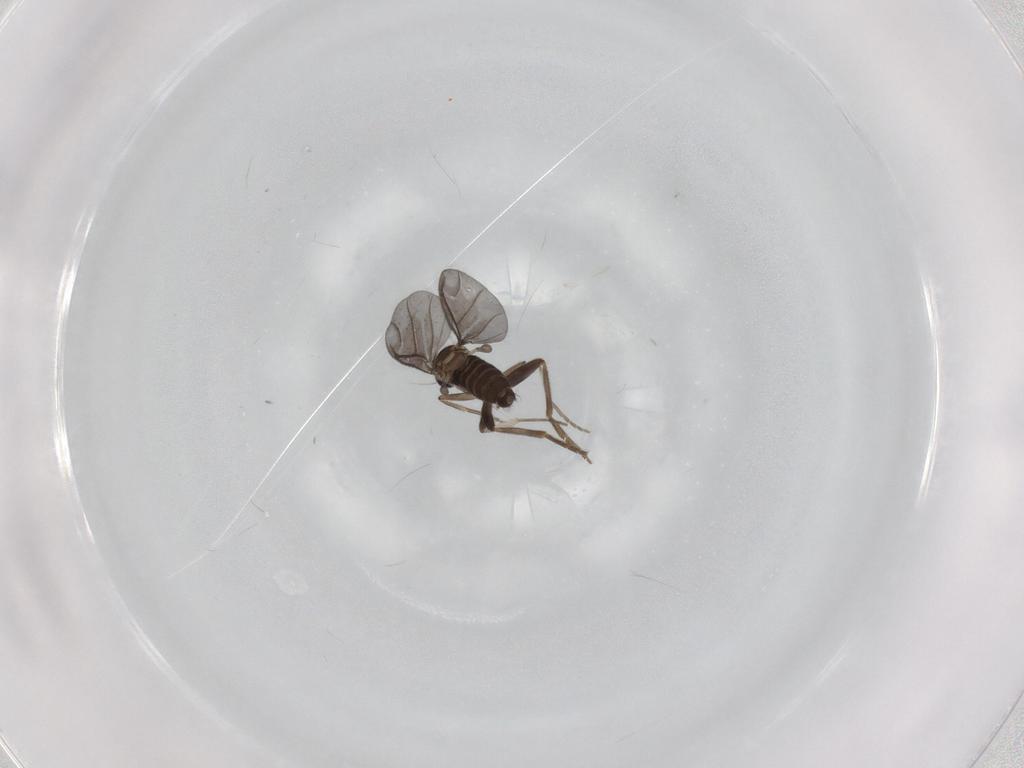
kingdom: Animalia
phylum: Arthropoda
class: Insecta
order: Diptera
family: Phoridae
